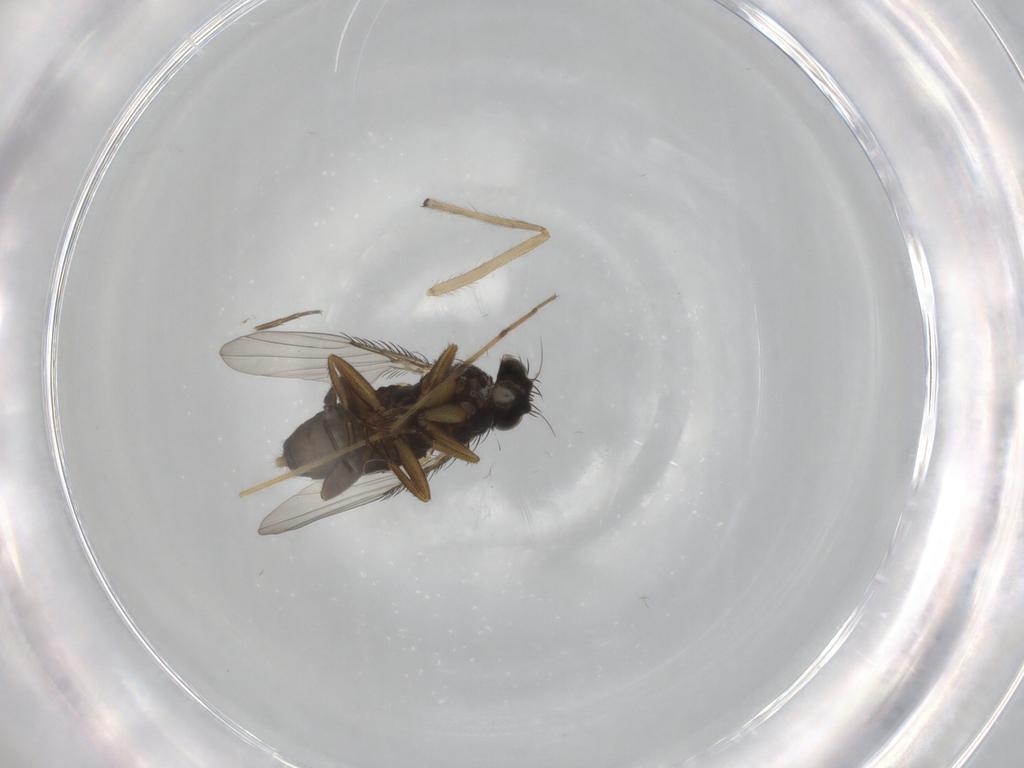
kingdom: Animalia
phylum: Arthropoda
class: Insecta
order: Diptera
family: Phoridae
